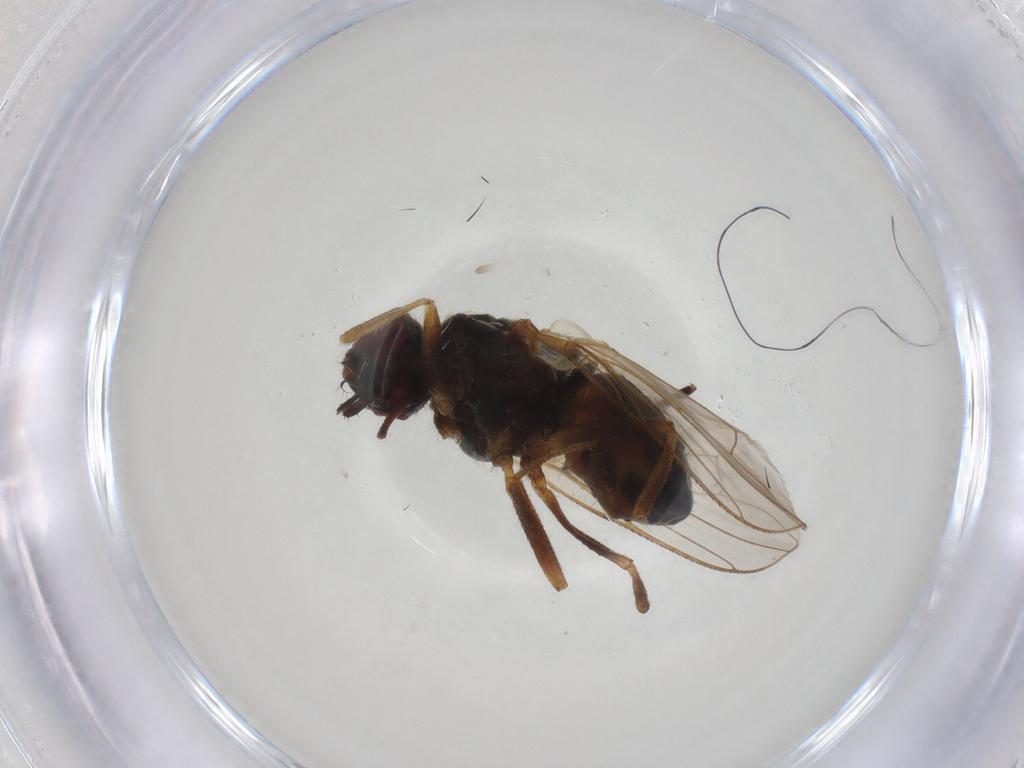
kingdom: Animalia
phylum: Arthropoda
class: Insecta
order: Diptera
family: Muscidae
